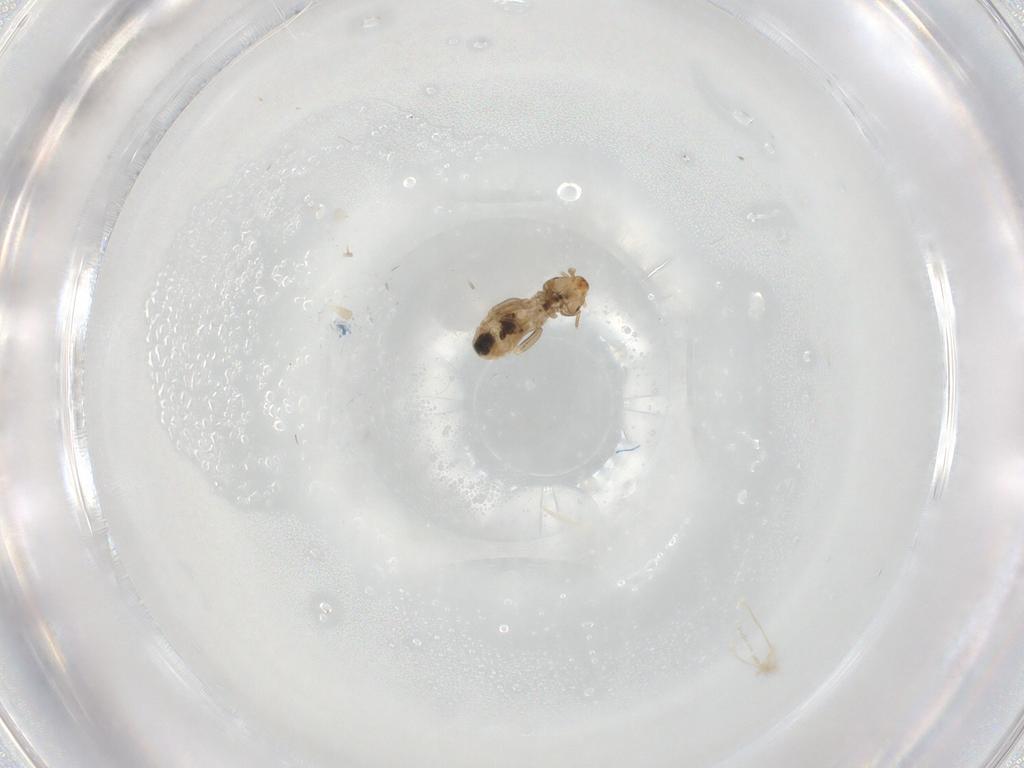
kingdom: Animalia
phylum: Arthropoda
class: Insecta
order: Psocodea
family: Liposcelididae
